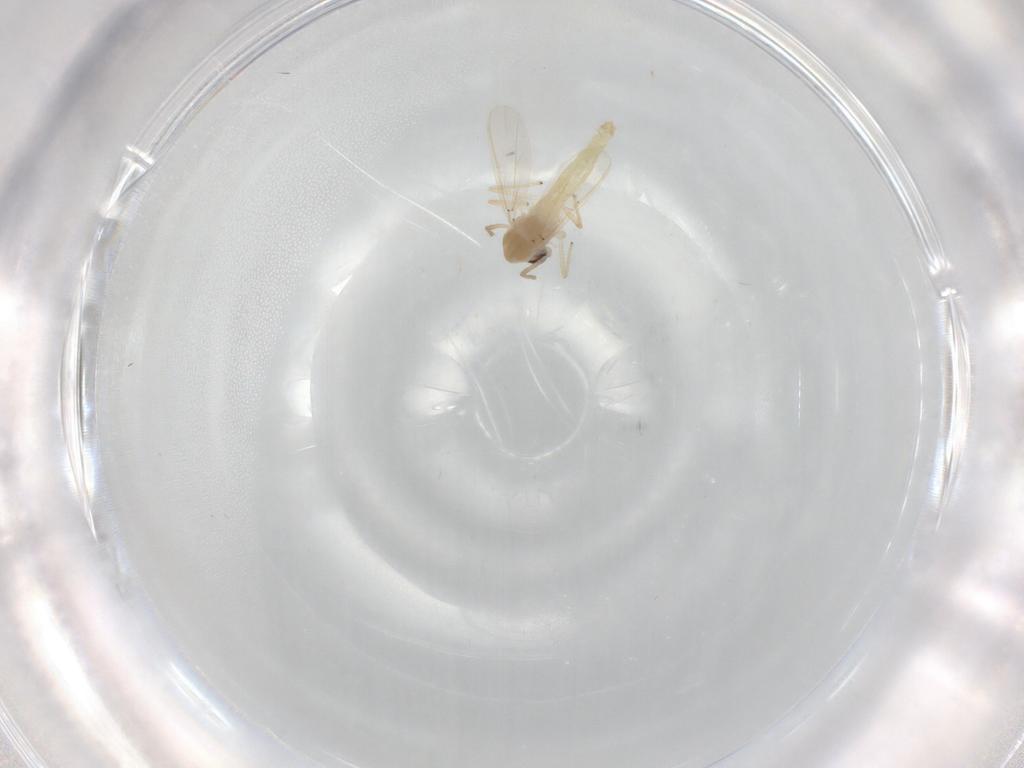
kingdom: Animalia
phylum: Arthropoda
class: Insecta
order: Diptera
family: Chironomidae
